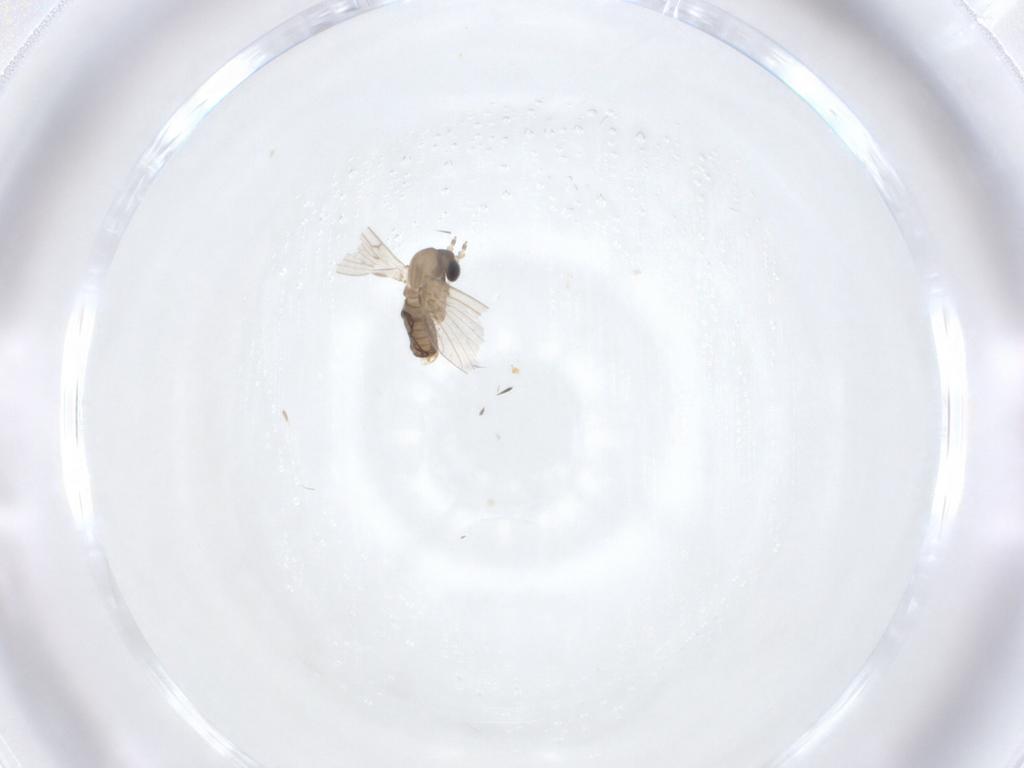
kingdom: Animalia
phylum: Arthropoda
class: Insecta
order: Diptera
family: Psychodidae
